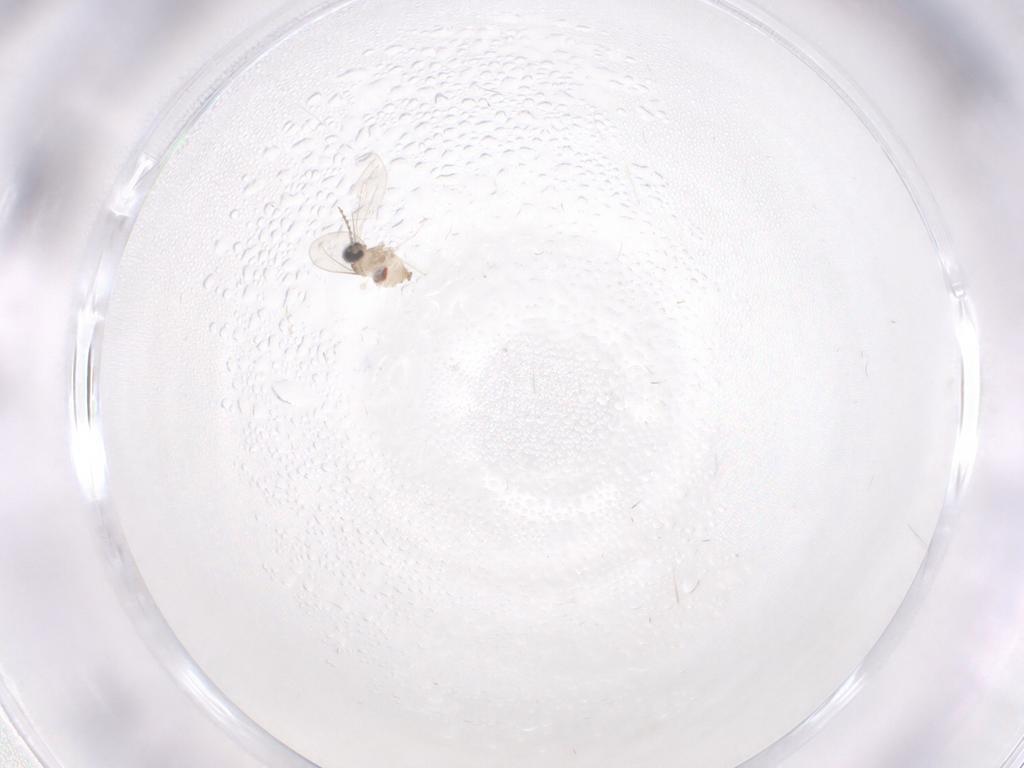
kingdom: Animalia
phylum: Arthropoda
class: Insecta
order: Diptera
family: Cecidomyiidae
